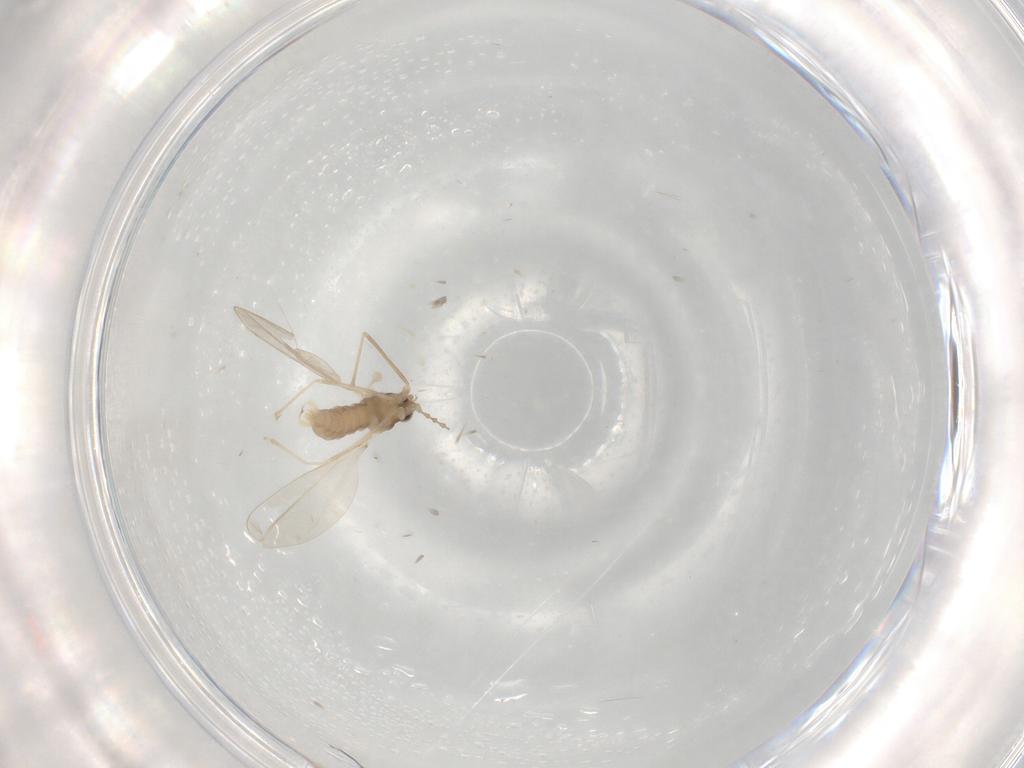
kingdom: Animalia
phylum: Arthropoda
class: Insecta
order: Diptera
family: Cecidomyiidae
